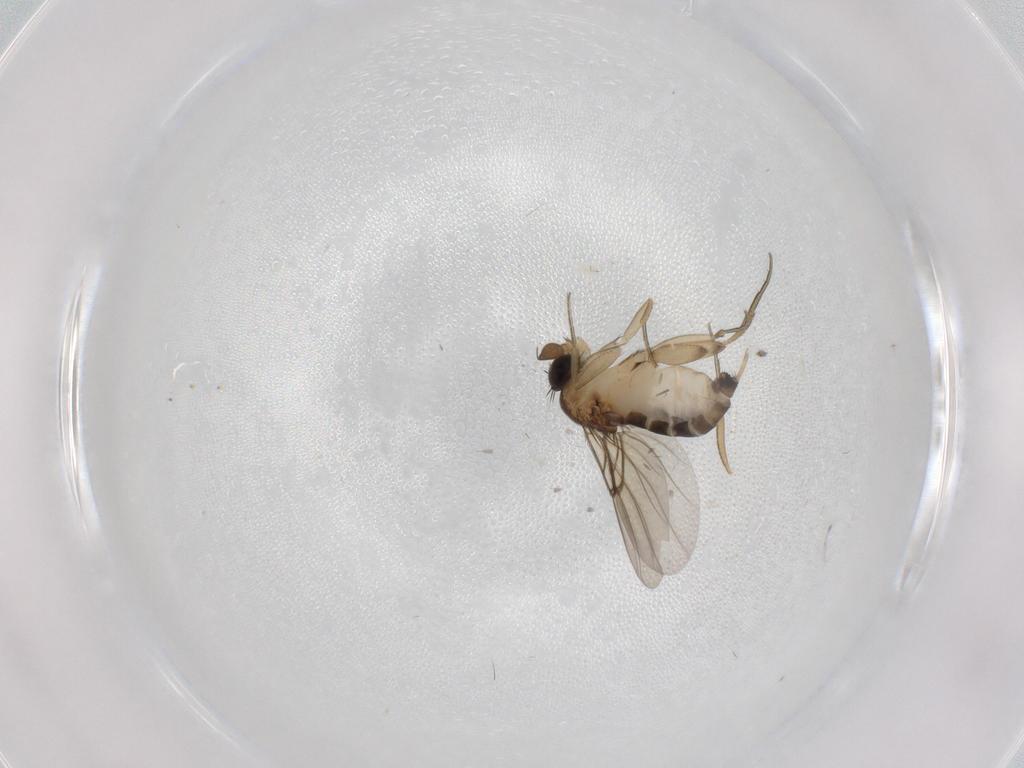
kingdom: Animalia
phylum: Arthropoda
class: Insecta
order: Diptera
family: Phoridae
